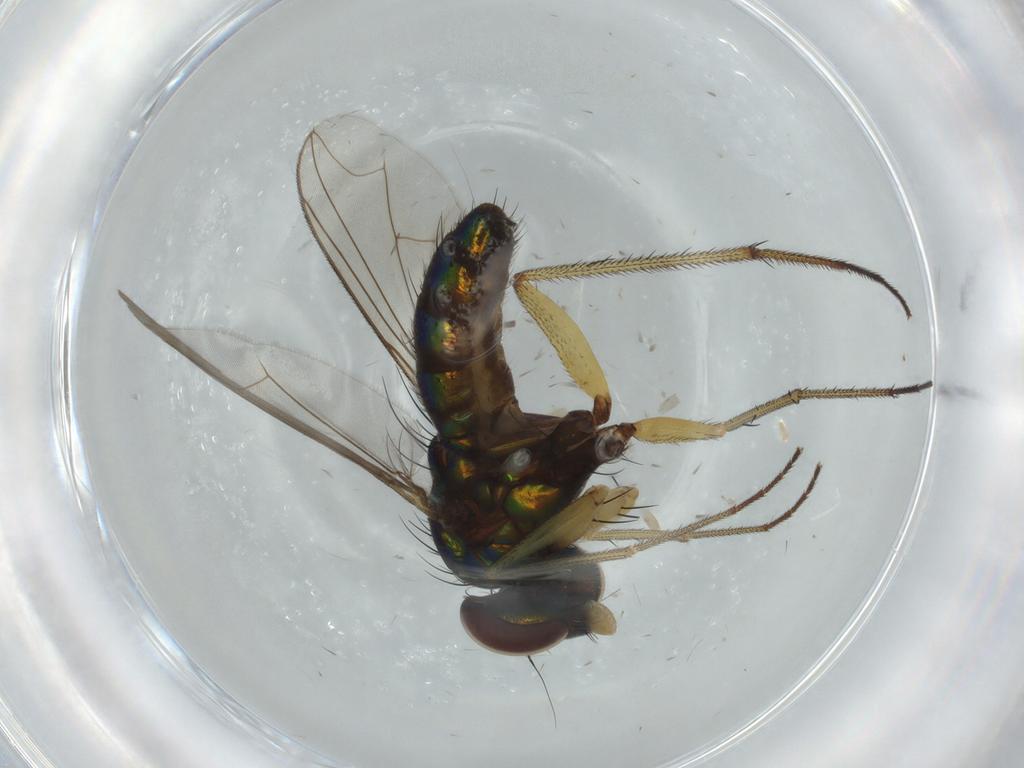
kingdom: Animalia
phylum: Arthropoda
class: Insecta
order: Diptera
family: Dolichopodidae
